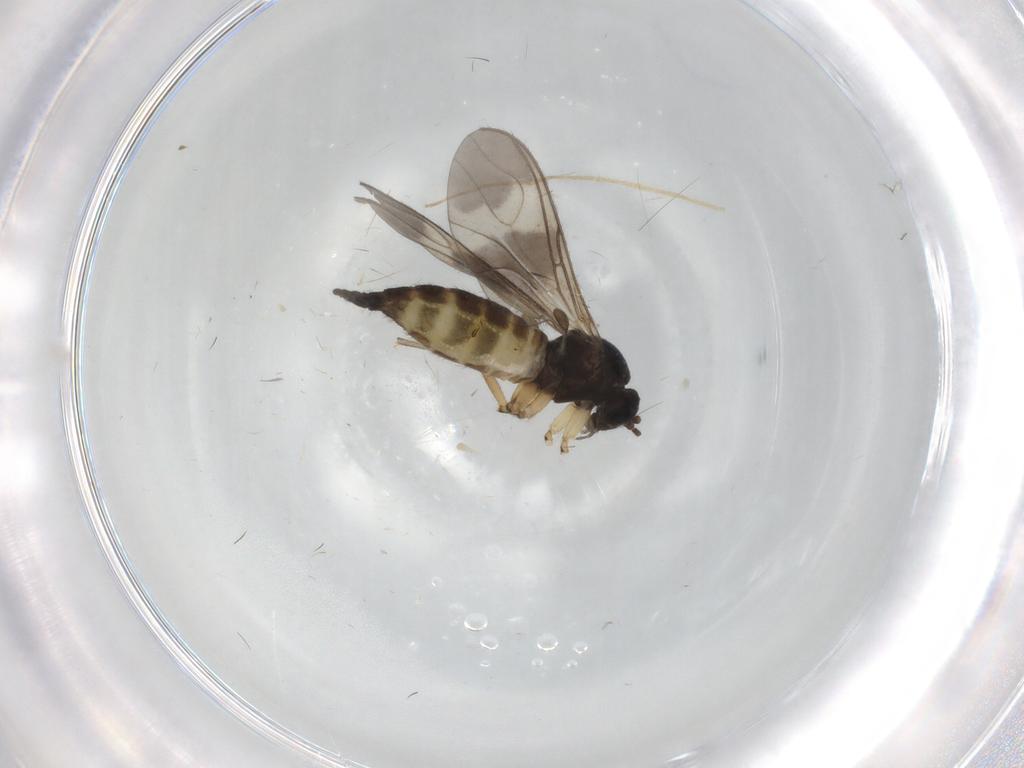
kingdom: Animalia
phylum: Arthropoda
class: Insecta
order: Diptera
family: Sciaridae
